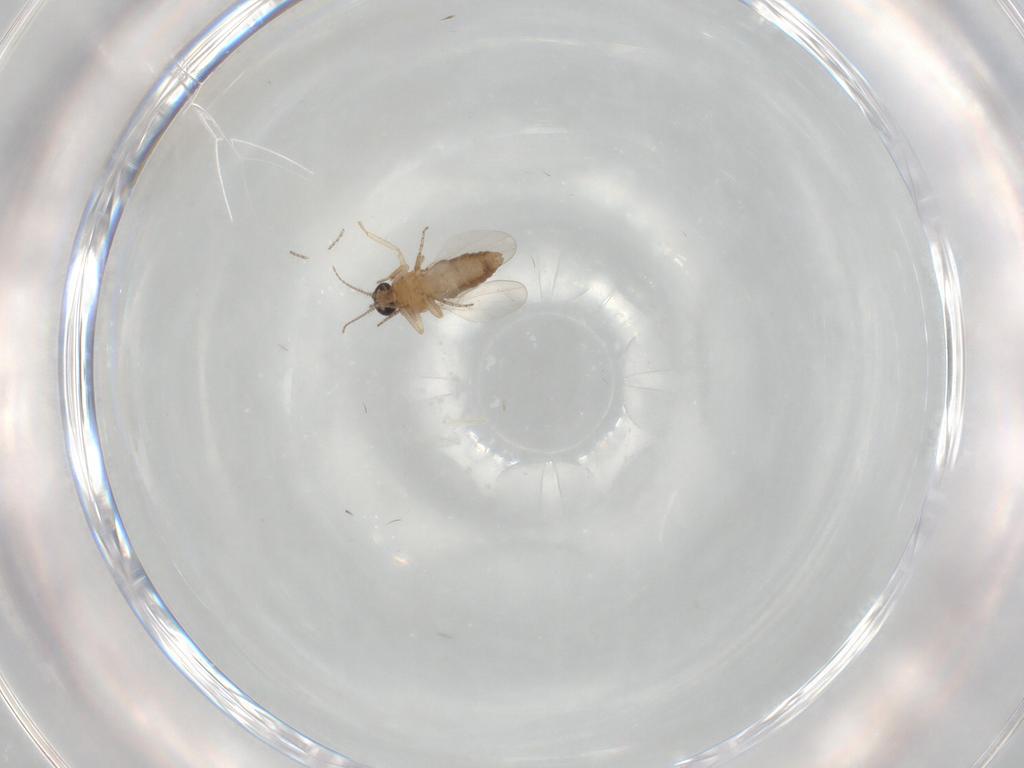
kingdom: Animalia
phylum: Arthropoda
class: Insecta
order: Diptera
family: Ceratopogonidae
